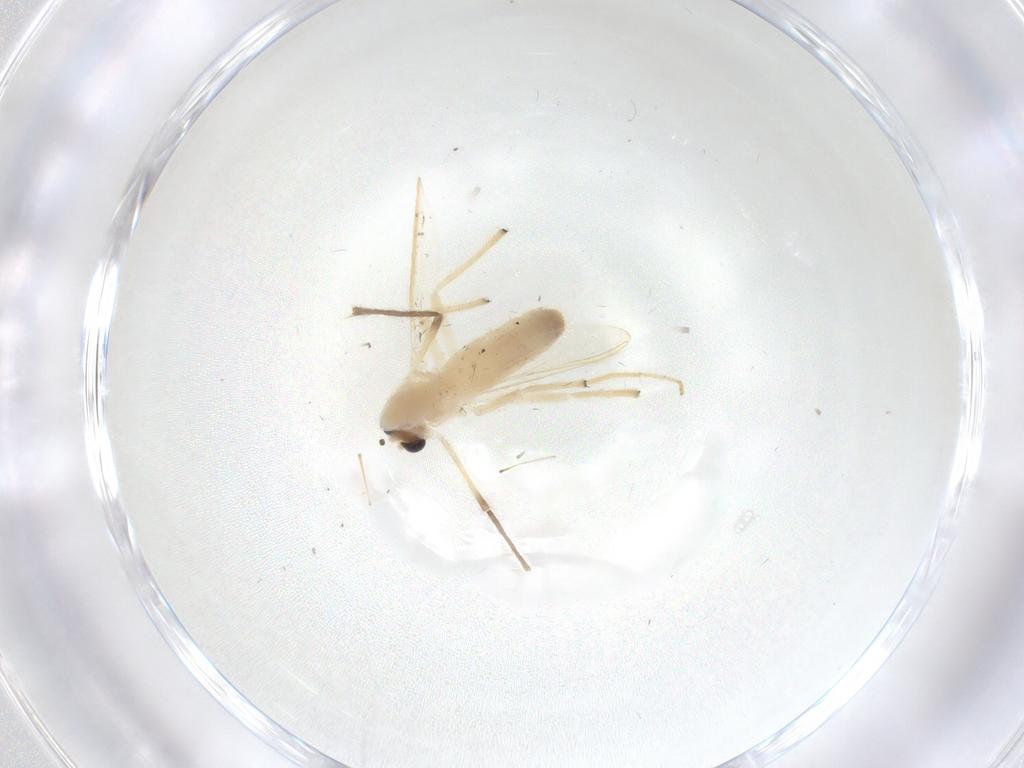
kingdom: Animalia
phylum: Arthropoda
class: Insecta
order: Diptera
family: Chironomidae
